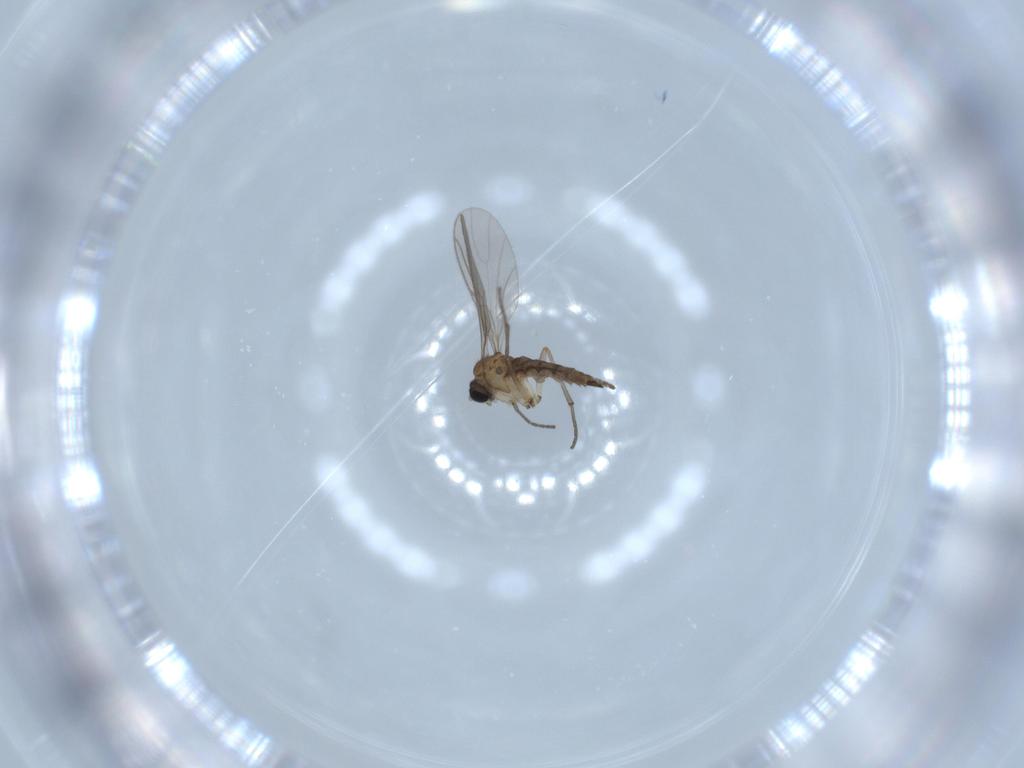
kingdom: Animalia
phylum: Arthropoda
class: Insecta
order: Diptera
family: Sciaridae
